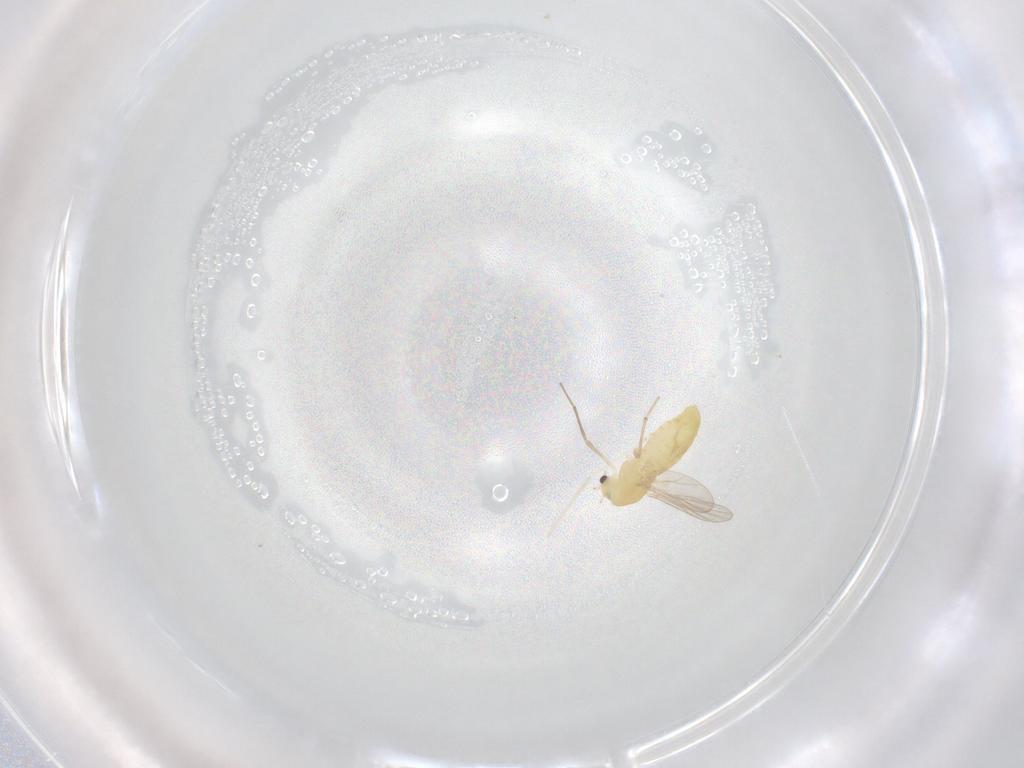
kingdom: Animalia
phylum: Arthropoda
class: Insecta
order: Diptera
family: Chironomidae
